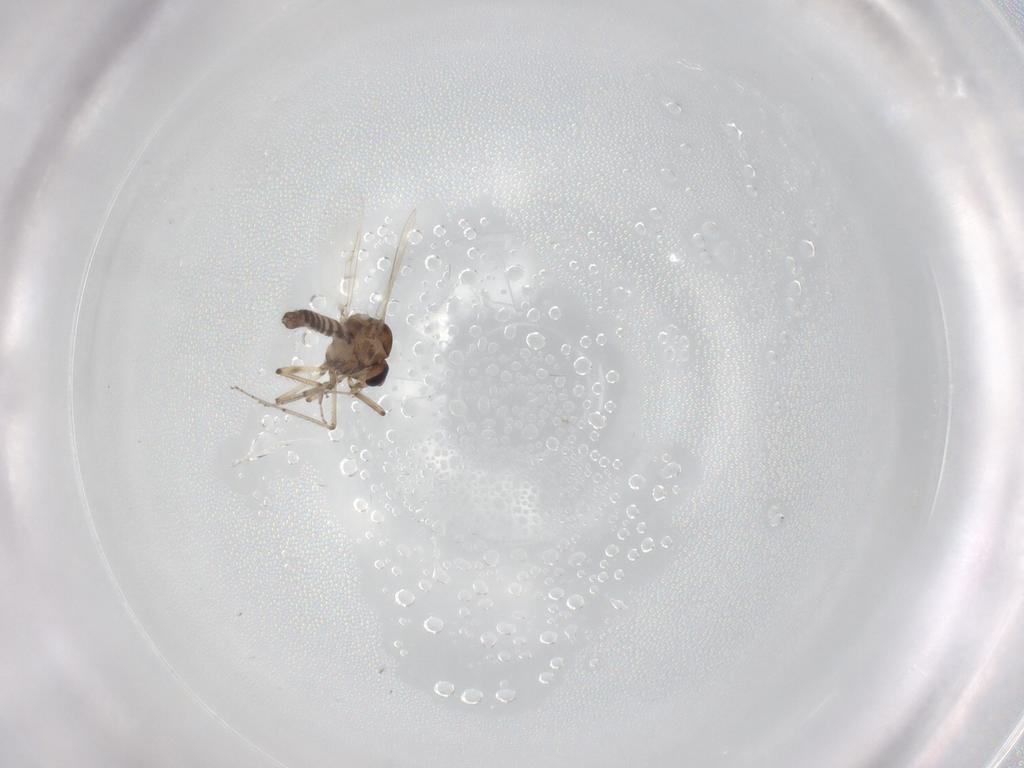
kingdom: Animalia
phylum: Arthropoda
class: Insecta
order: Diptera
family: Ceratopogonidae
